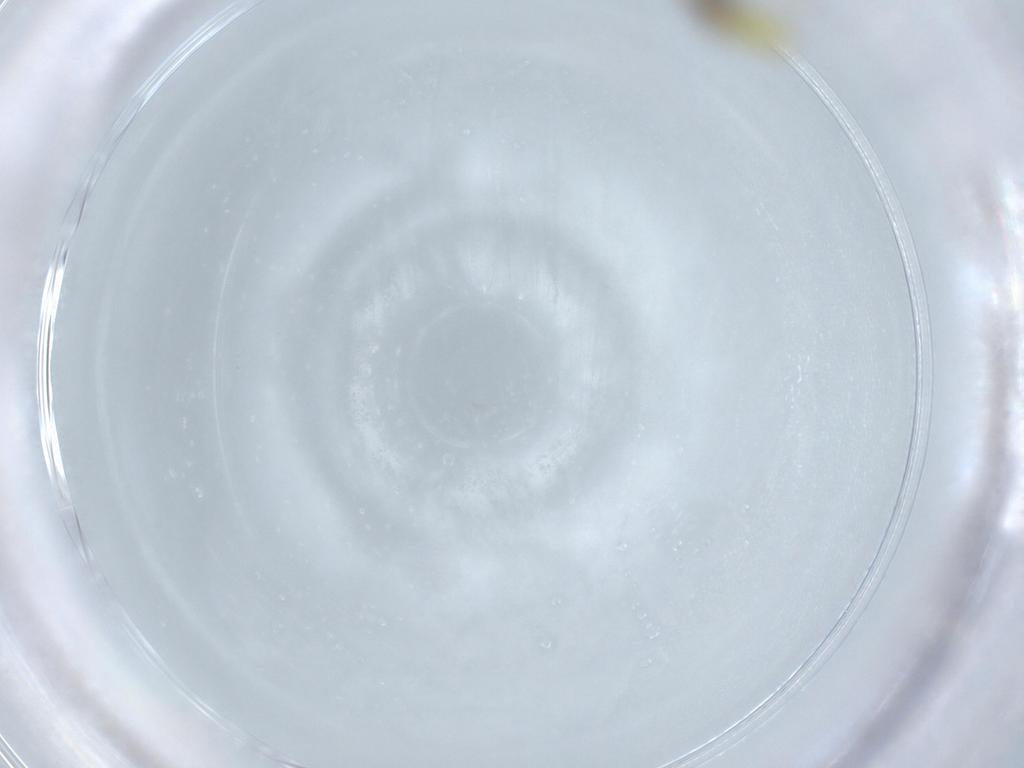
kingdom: Animalia
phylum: Arthropoda
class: Insecta
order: Hemiptera
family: Aleyrodidae
